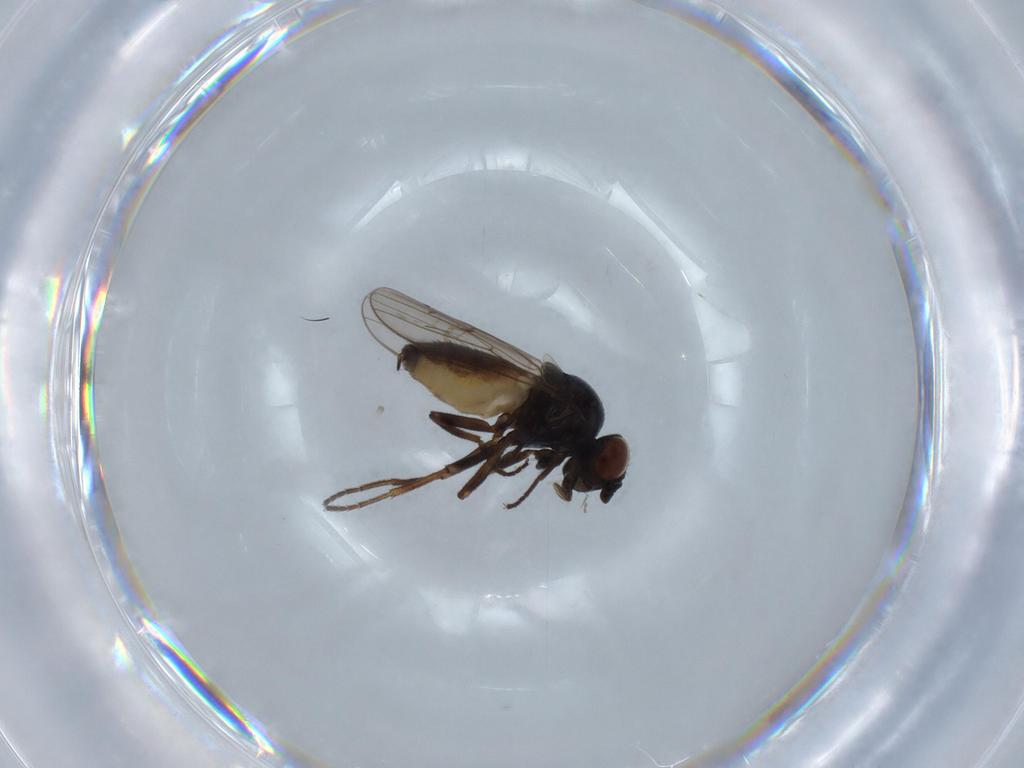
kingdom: Animalia
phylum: Arthropoda
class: Insecta
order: Diptera
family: Chloropidae
